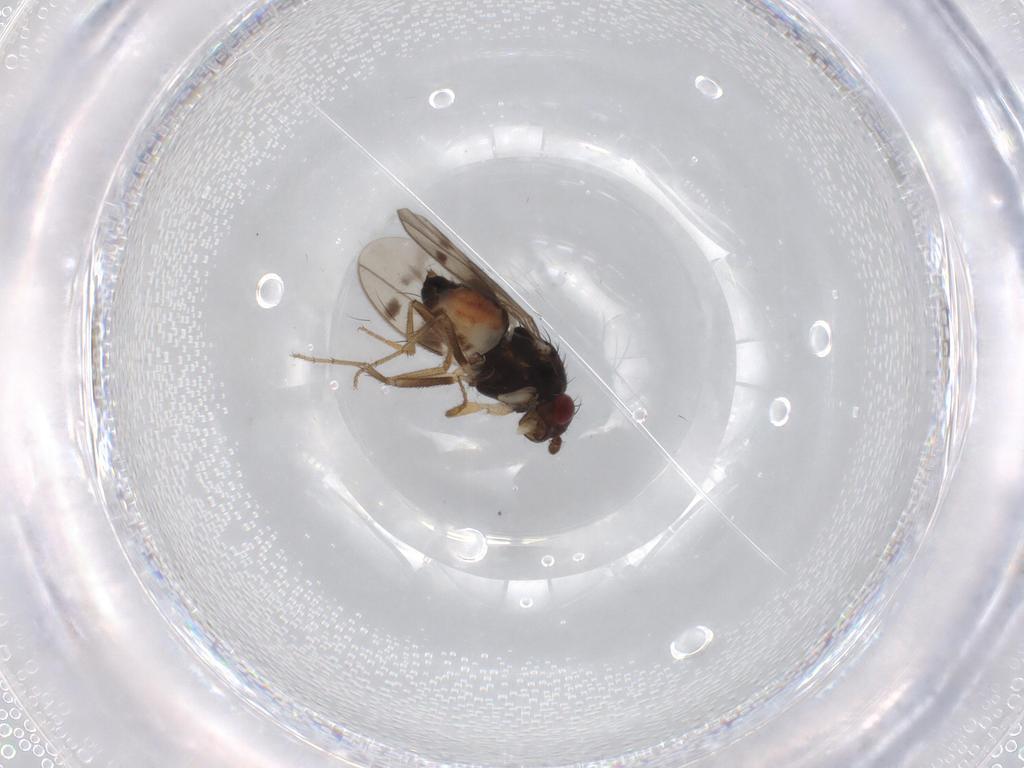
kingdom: Animalia
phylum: Arthropoda
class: Insecta
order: Diptera
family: Sphaeroceridae
